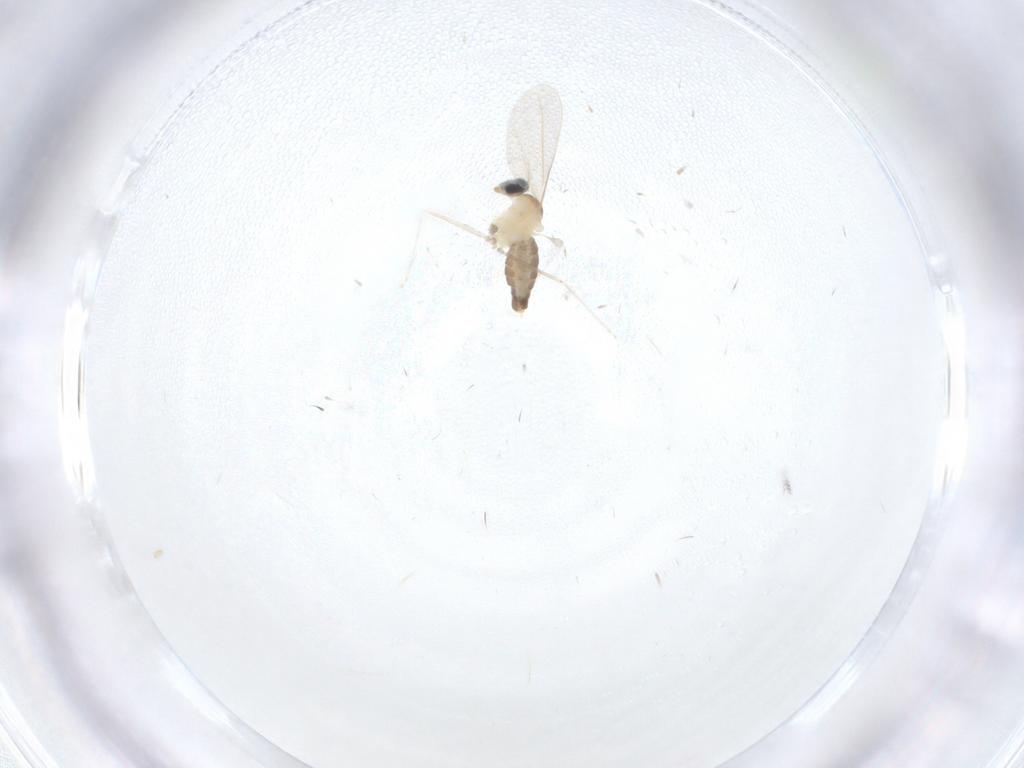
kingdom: Animalia
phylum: Arthropoda
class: Insecta
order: Diptera
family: Cecidomyiidae
